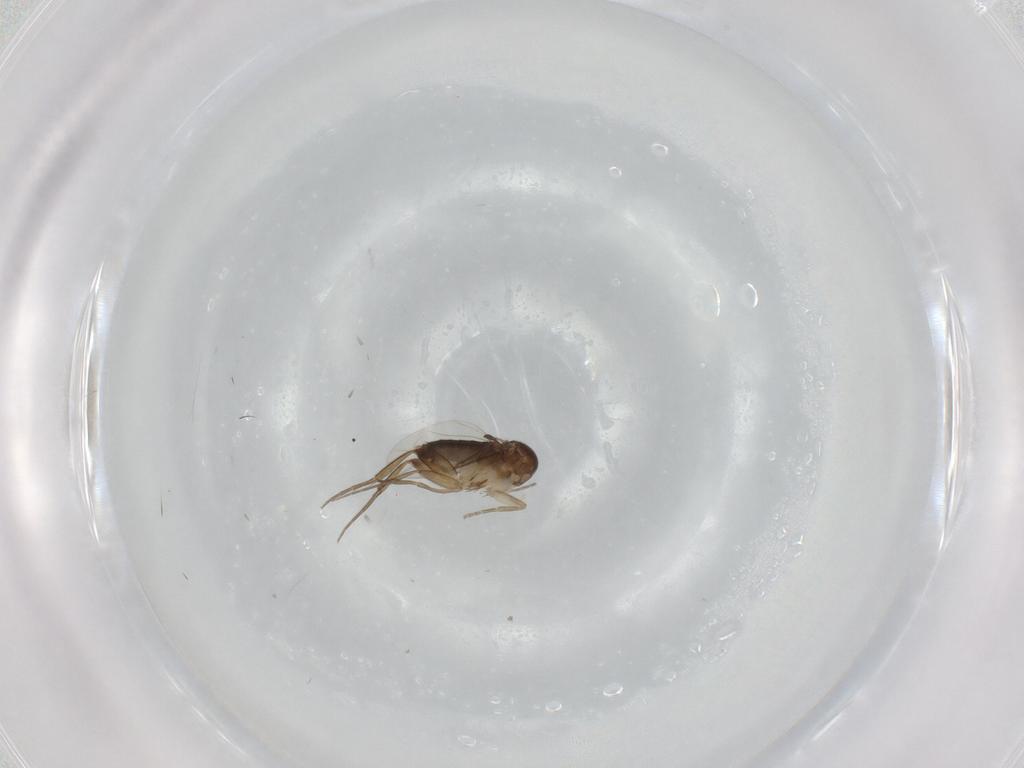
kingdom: Animalia
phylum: Arthropoda
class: Insecta
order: Diptera
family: Phoridae
